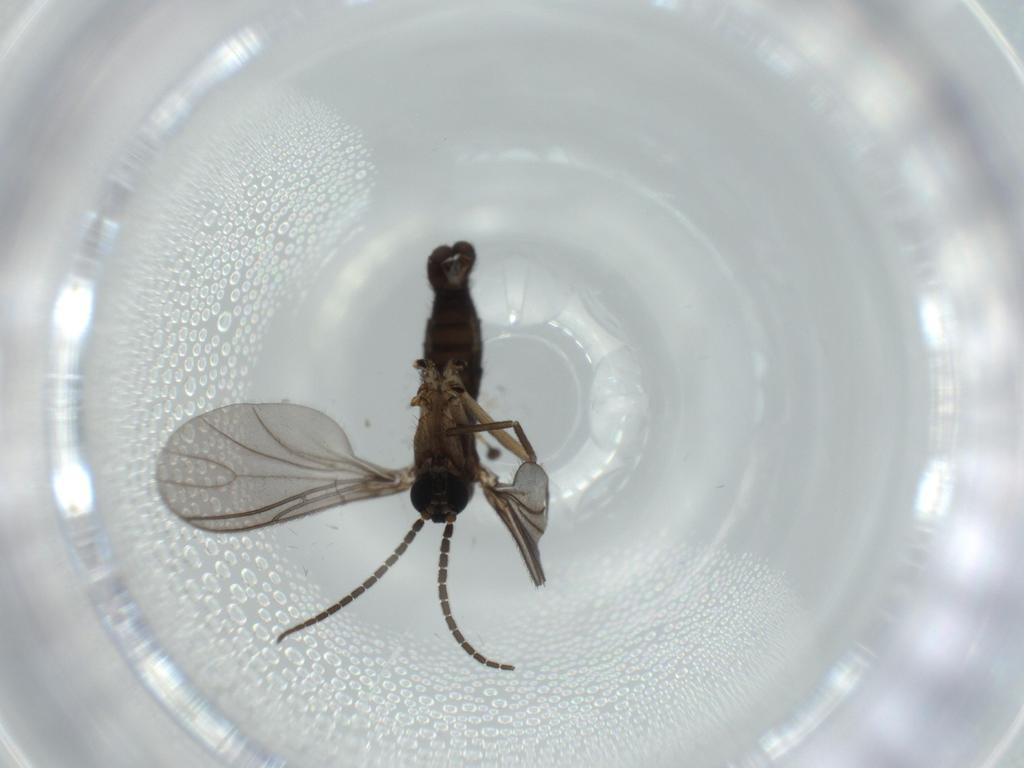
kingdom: Animalia
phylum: Arthropoda
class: Insecta
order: Diptera
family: Sciaridae
